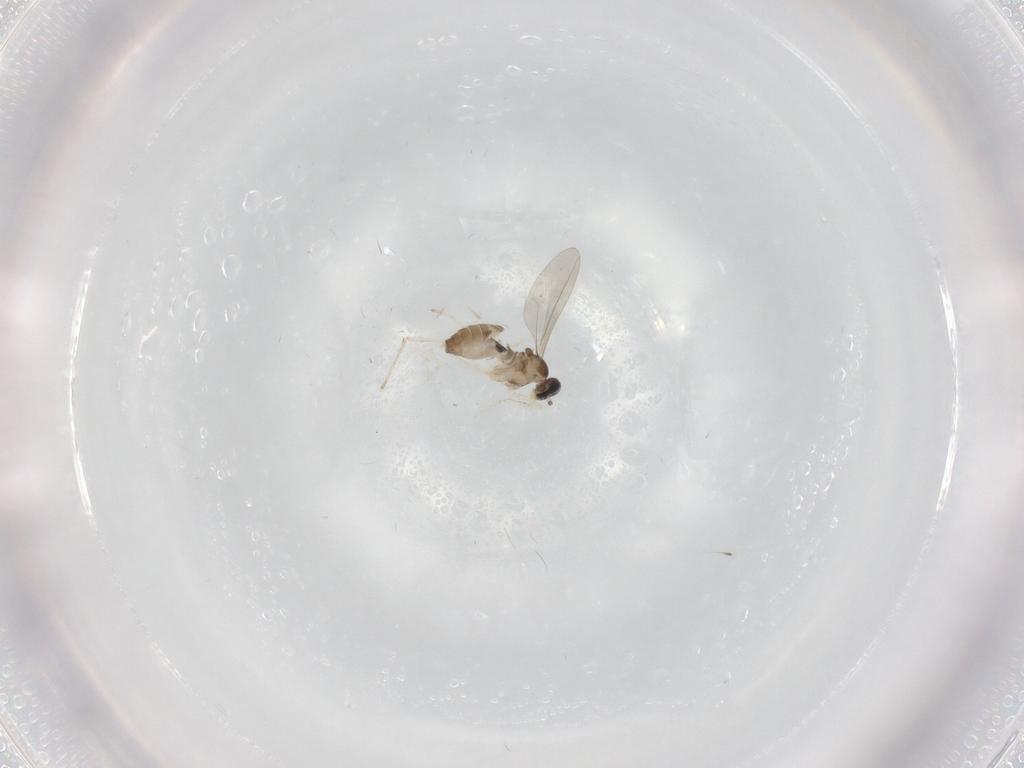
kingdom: Animalia
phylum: Arthropoda
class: Insecta
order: Diptera
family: Cecidomyiidae
